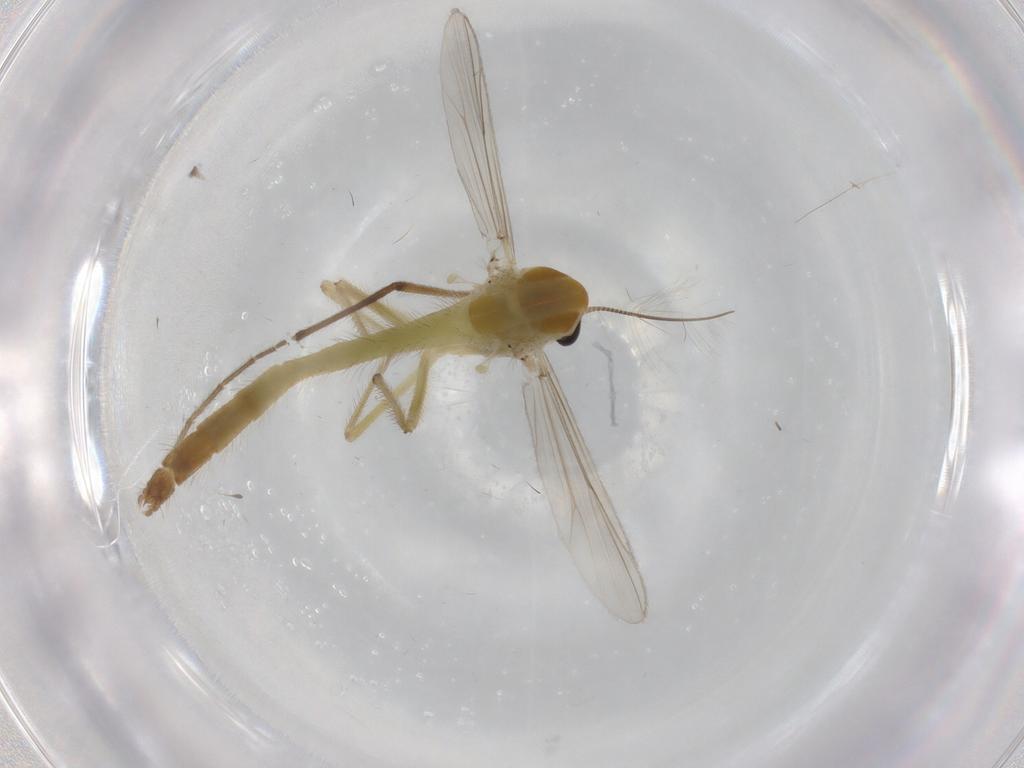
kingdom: Animalia
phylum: Arthropoda
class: Insecta
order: Diptera
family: Chironomidae
